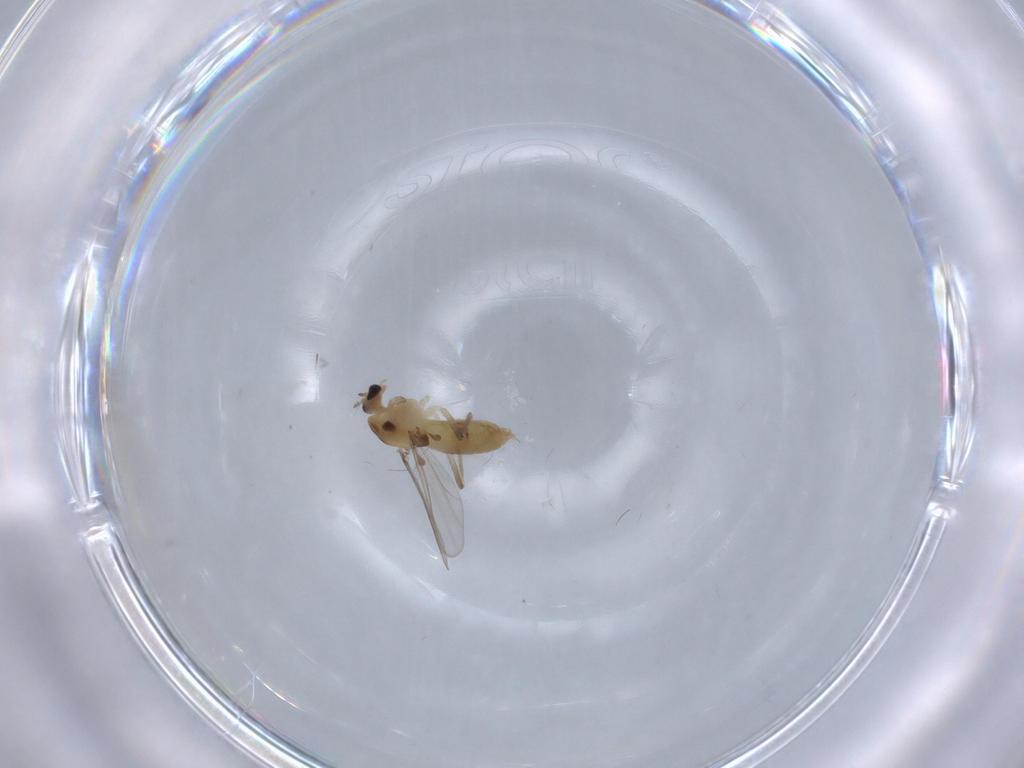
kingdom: Animalia
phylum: Arthropoda
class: Insecta
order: Diptera
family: Chironomidae
